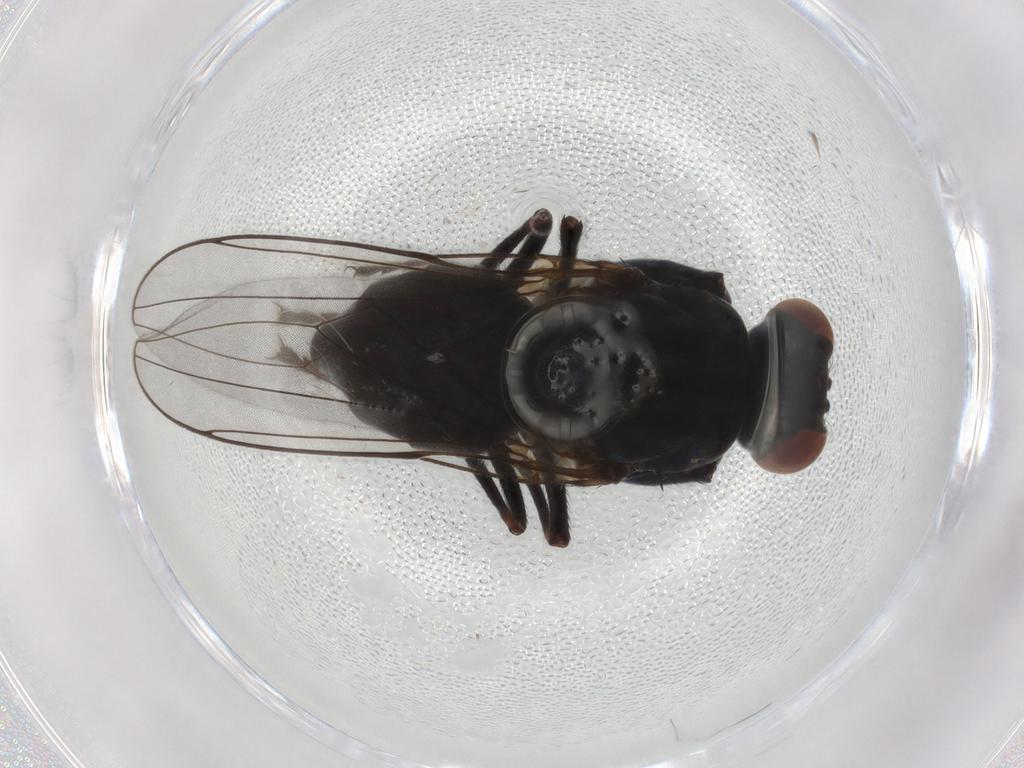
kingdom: Animalia
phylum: Arthropoda
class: Insecta
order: Diptera
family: Ephydridae
